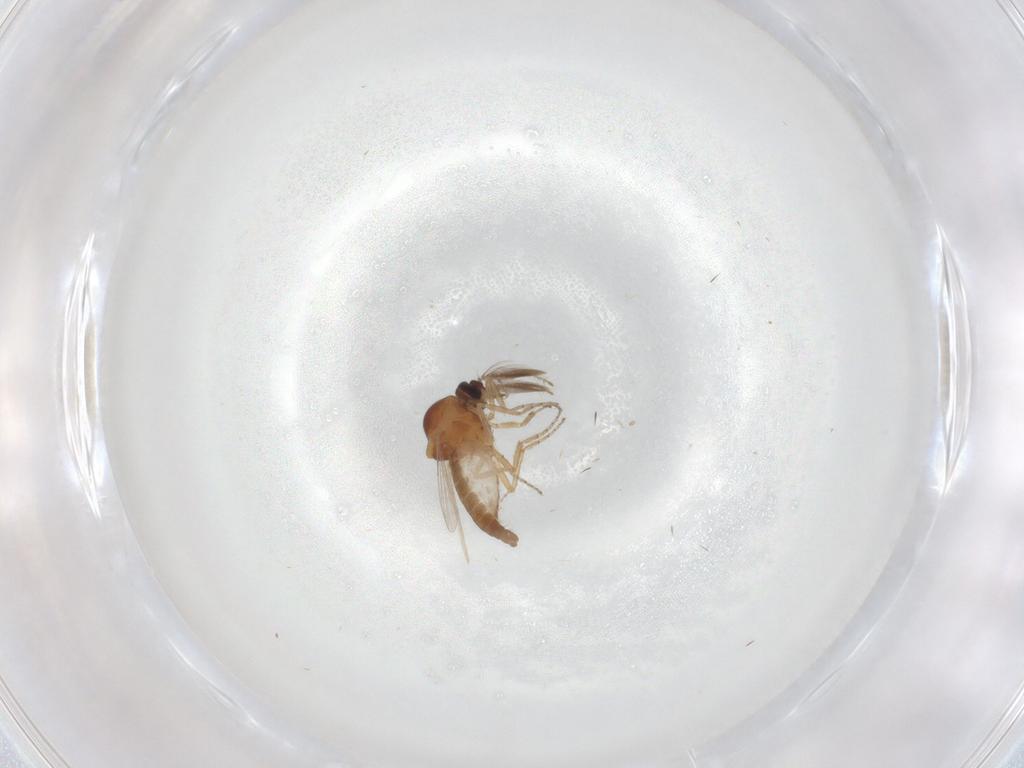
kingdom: Animalia
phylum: Arthropoda
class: Insecta
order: Diptera
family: Ceratopogonidae
